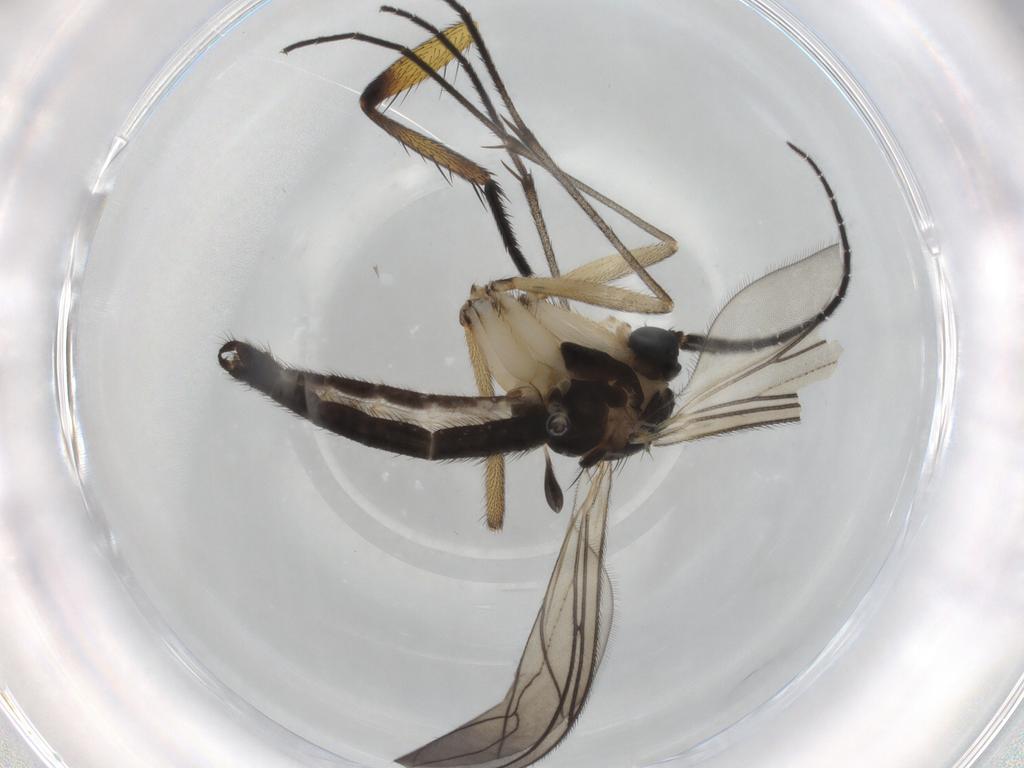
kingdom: Animalia
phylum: Arthropoda
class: Insecta
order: Diptera
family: Sciaridae
